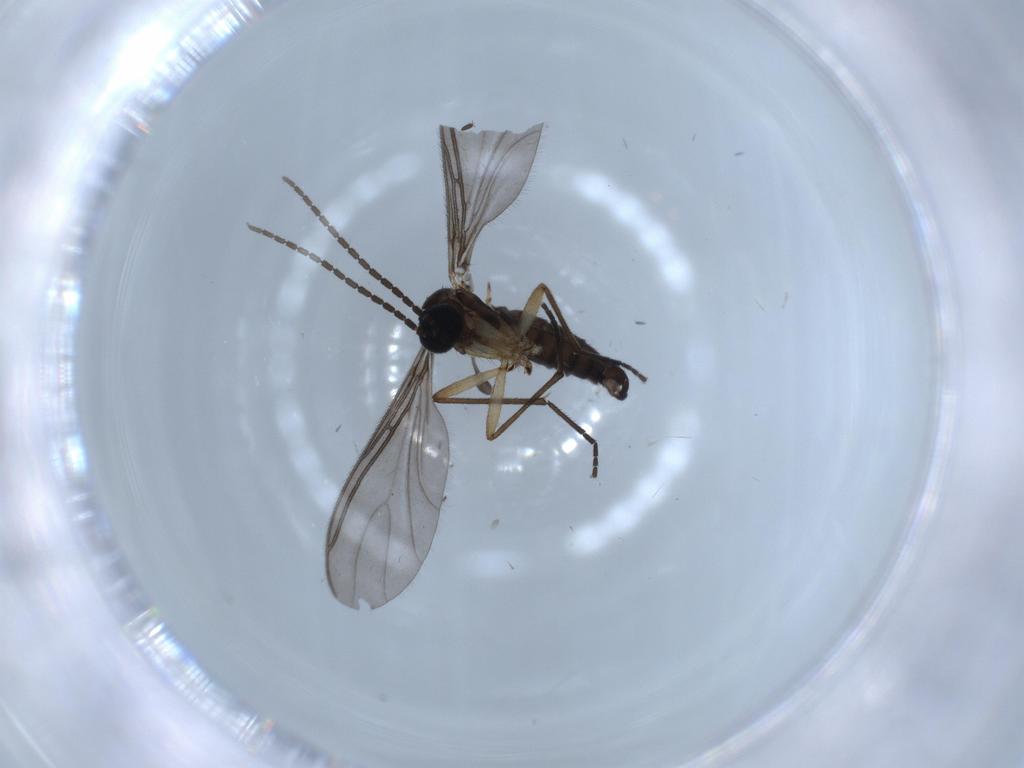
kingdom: Animalia
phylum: Arthropoda
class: Insecta
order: Diptera
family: Sciaridae
